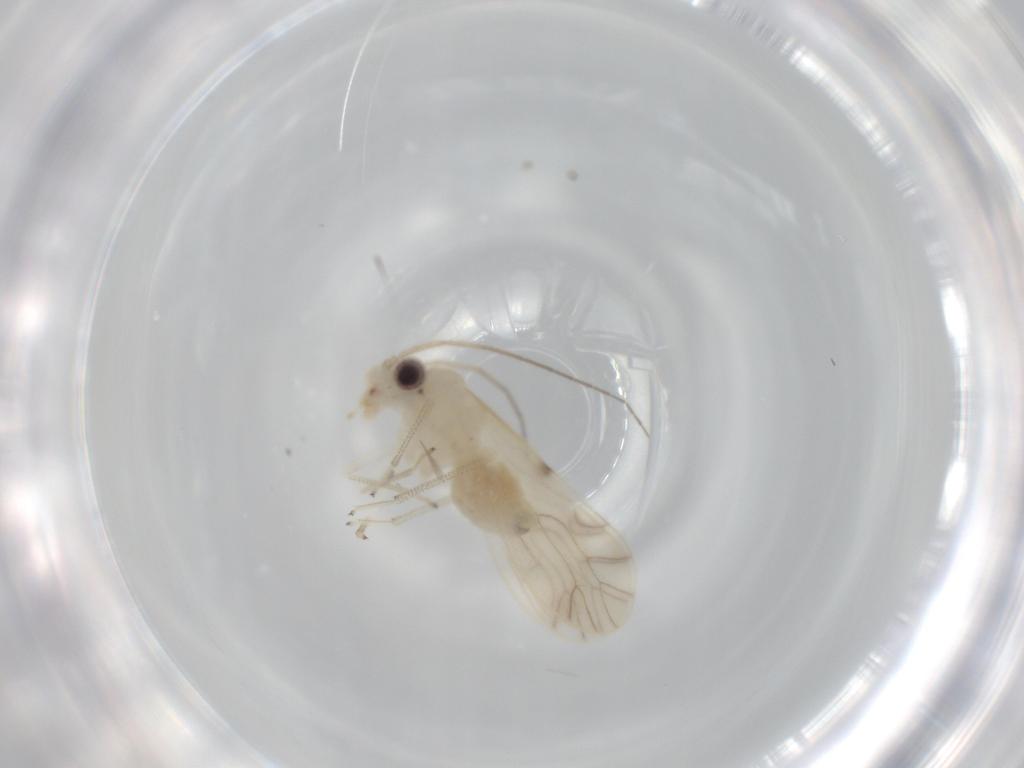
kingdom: Animalia
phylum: Arthropoda
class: Insecta
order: Psocodea
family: Caeciliusidae
